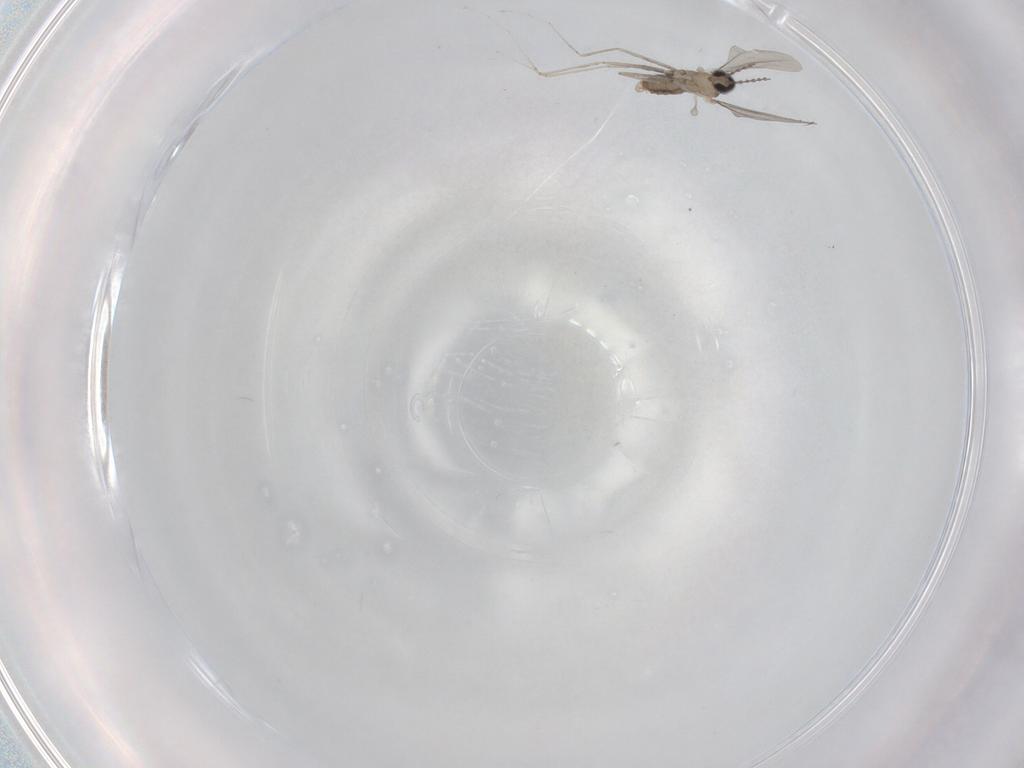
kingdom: Animalia
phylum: Arthropoda
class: Insecta
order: Diptera
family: Cecidomyiidae
